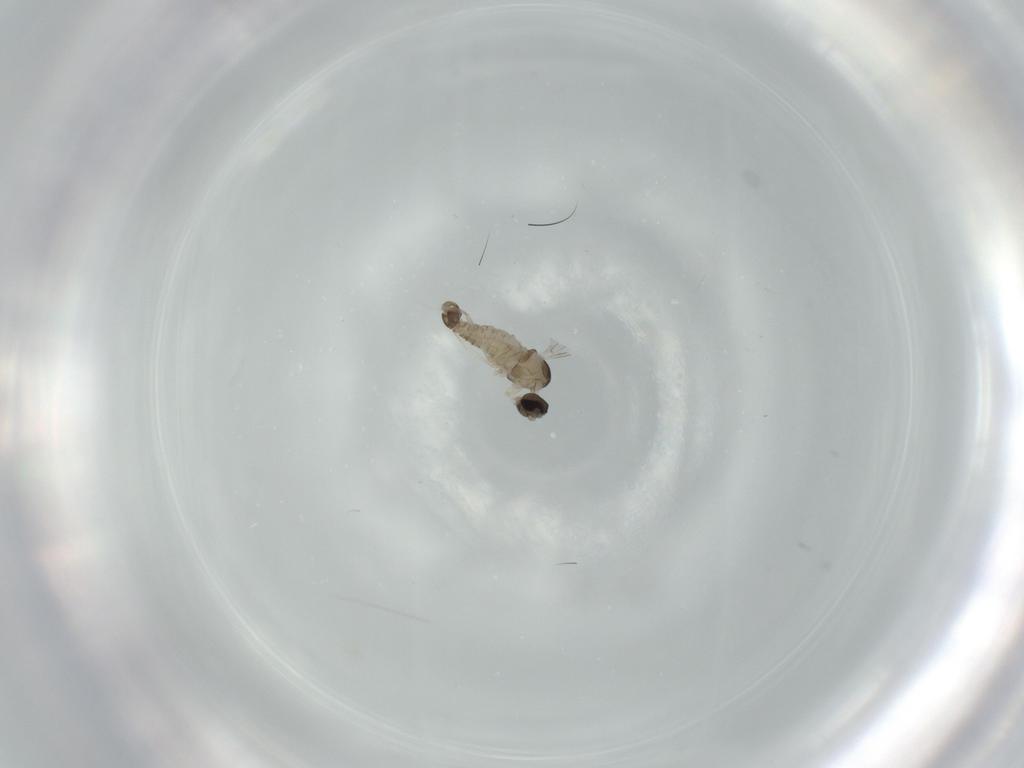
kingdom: Animalia
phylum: Arthropoda
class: Insecta
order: Diptera
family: Cecidomyiidae
